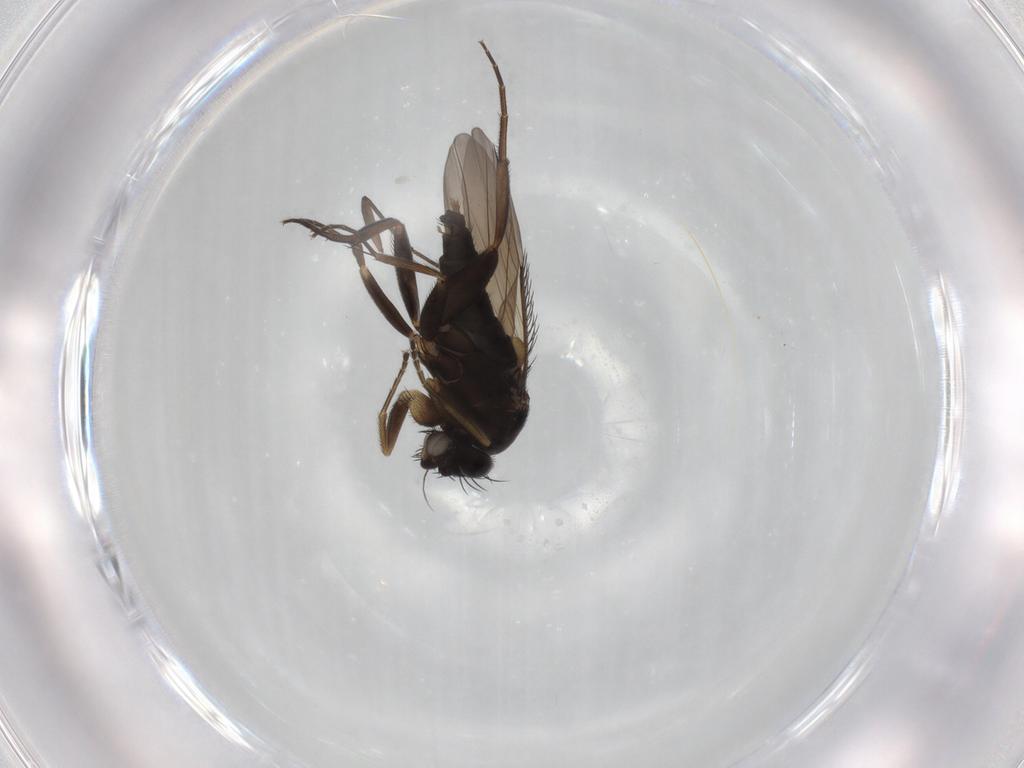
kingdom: Animalia
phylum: Arthropoda
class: Insecta
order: Diptera
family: Phoridae
